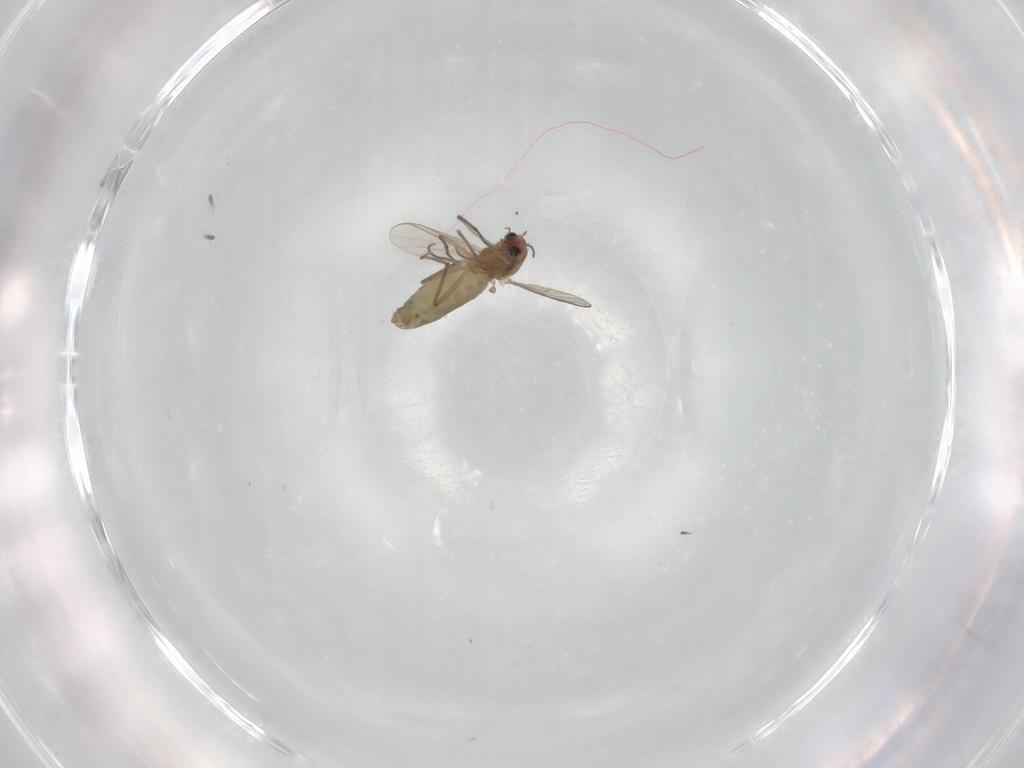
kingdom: Animalia
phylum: Arthropoda
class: Insecta
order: Diptera
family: Chironomidae
